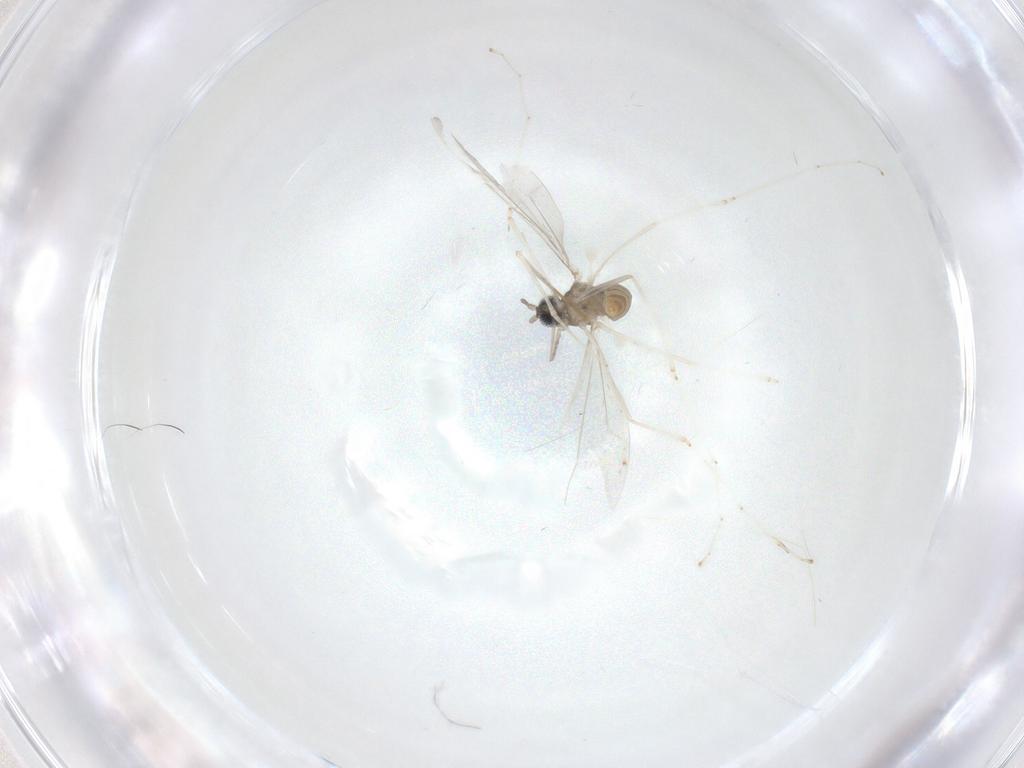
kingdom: Animalia
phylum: Arthropoda
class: Insecta
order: Diptera
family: Cecidomyiidae
